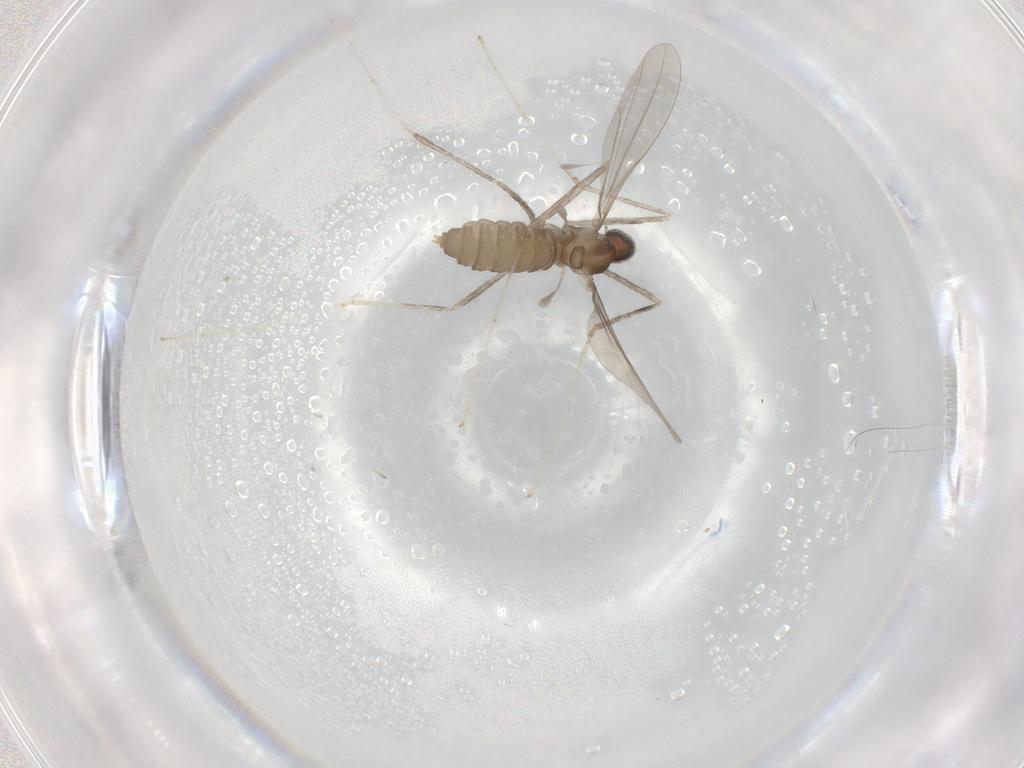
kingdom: Animalia
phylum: Arthropoda
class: Insecta
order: Diptera
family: Cecidomyiidae
